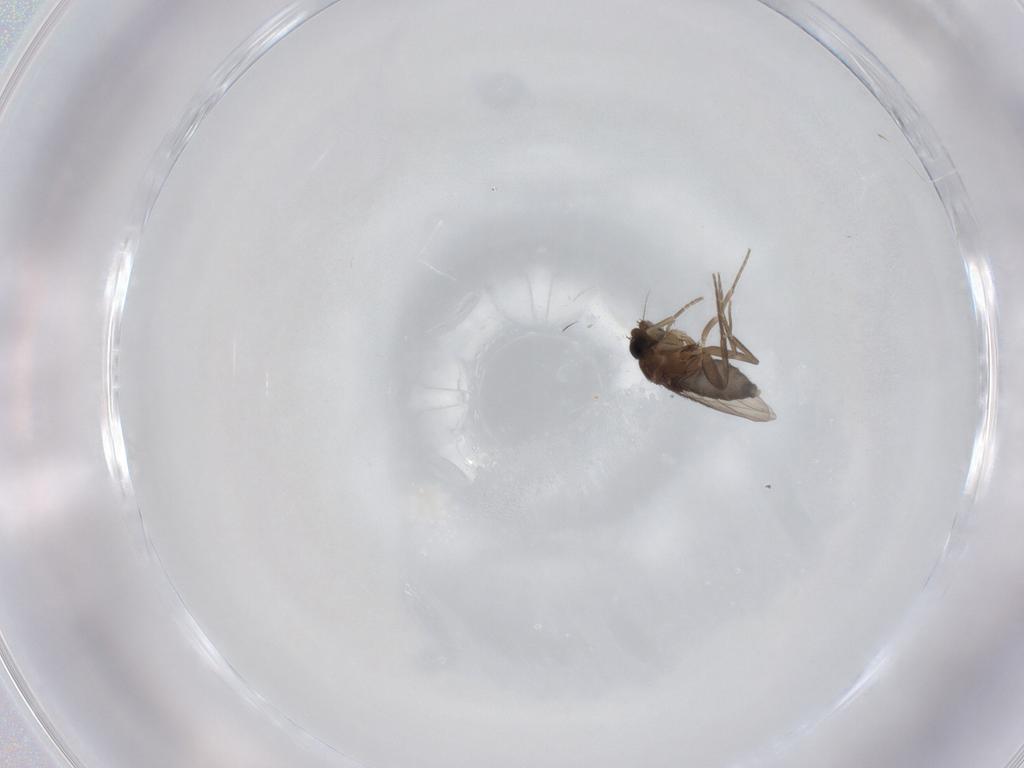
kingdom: Animalia
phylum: Arthropoda
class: Insecta
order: Diptera
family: Phoridae
